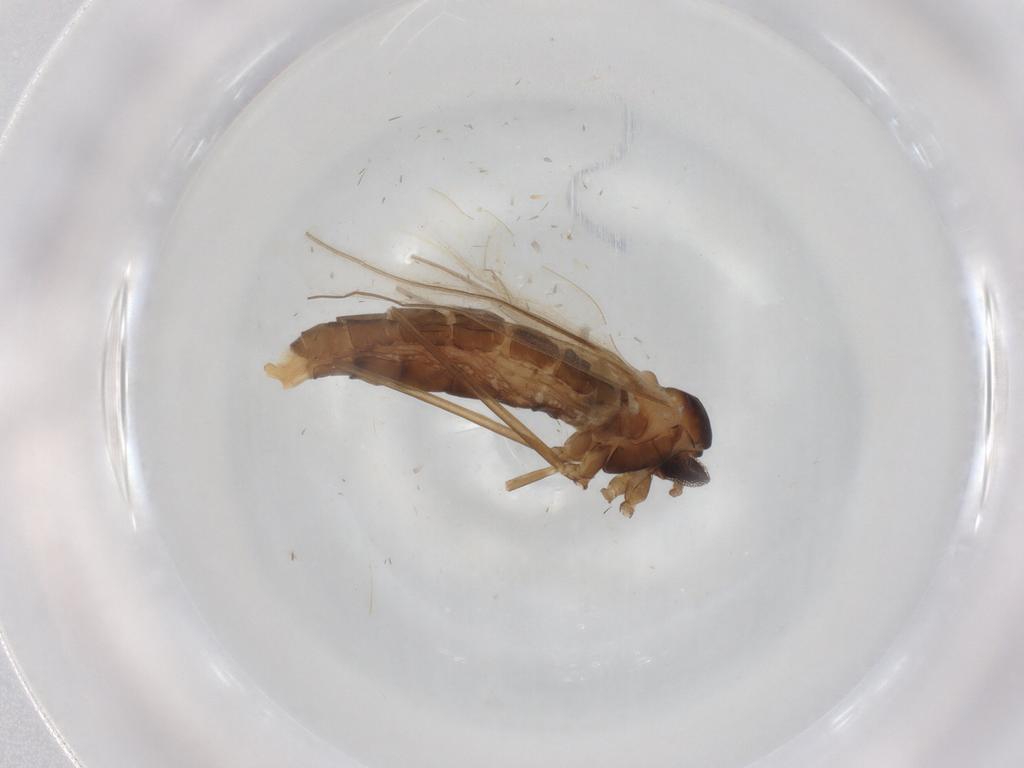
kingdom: Animalia
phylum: Arthropoda
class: Insecta
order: Diptera
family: Cecidomyiidae
